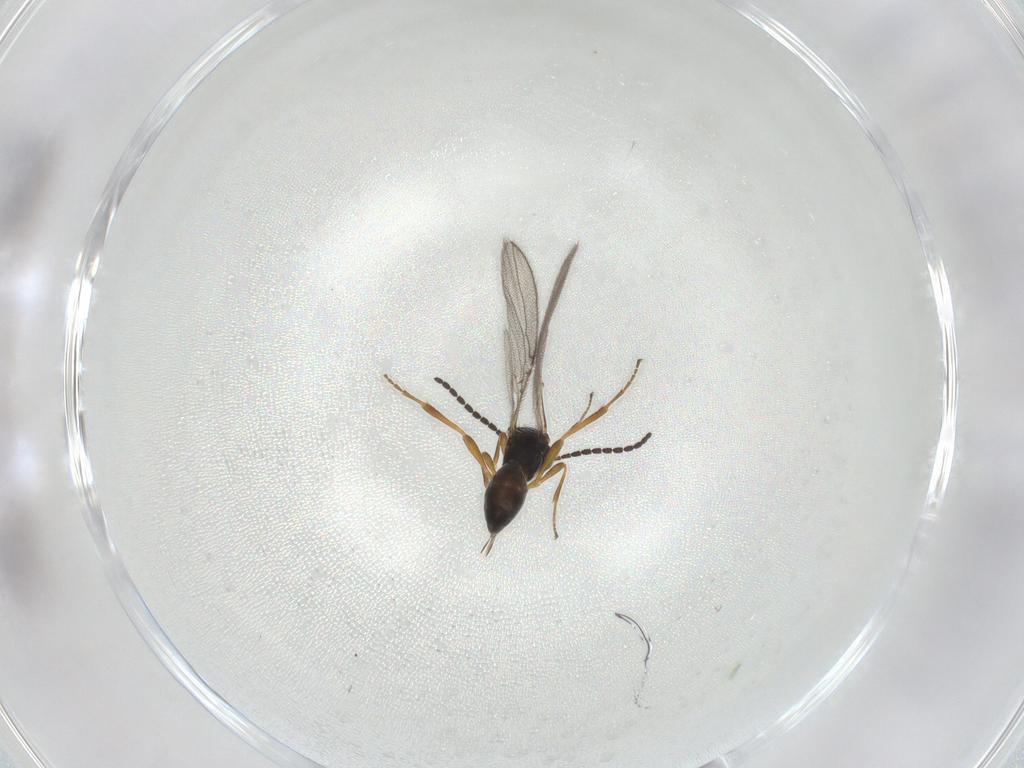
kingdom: Animalia
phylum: Arthropoda
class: Insecta
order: Hymenoptera
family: Braconidae
